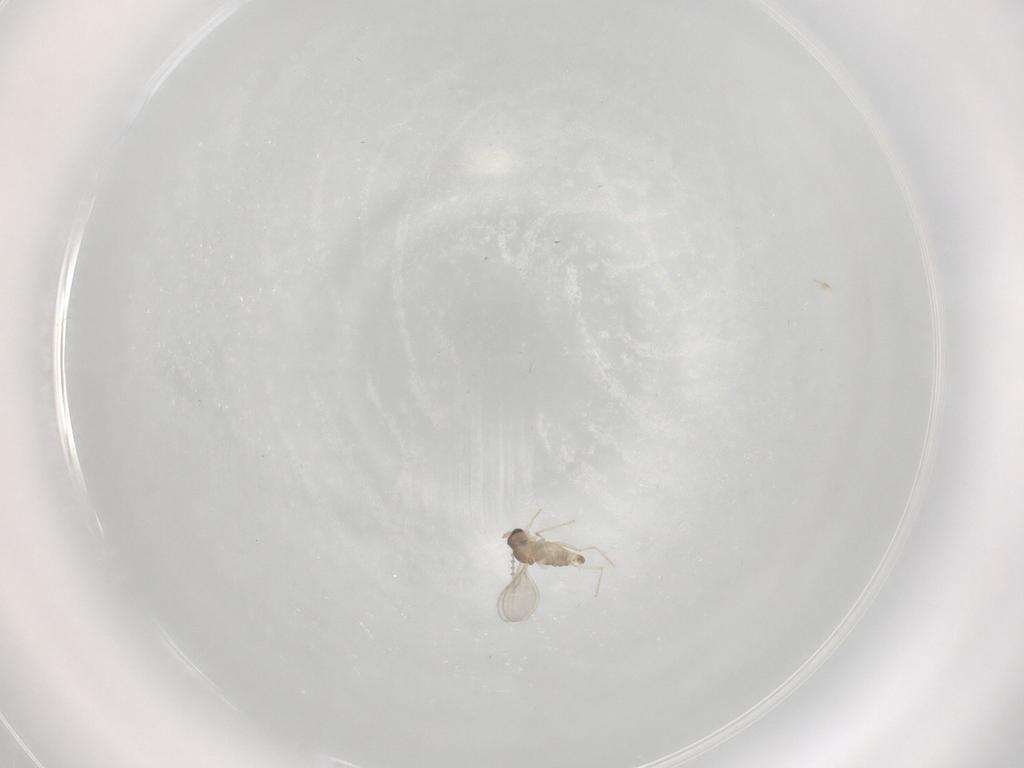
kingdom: Animalia
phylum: Arthropoda
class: Insecta
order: Diptera
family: Cecidomyiidae
